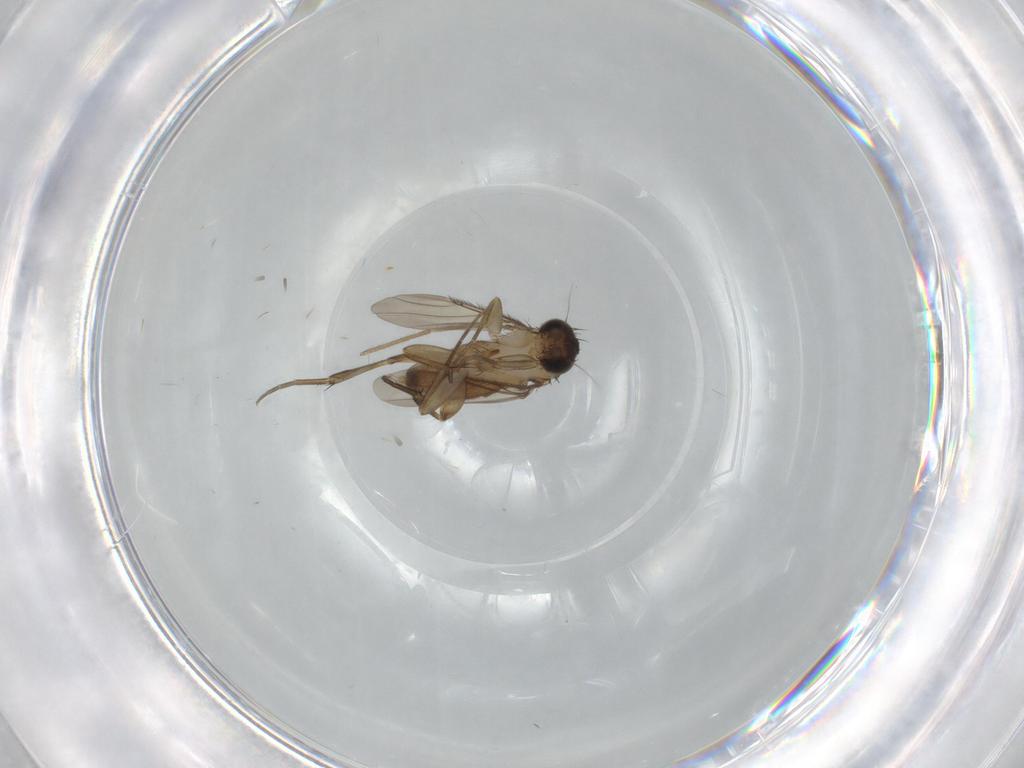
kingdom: Animalia
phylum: Arthropoda
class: Insecta
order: Diptera
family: Phoridae
